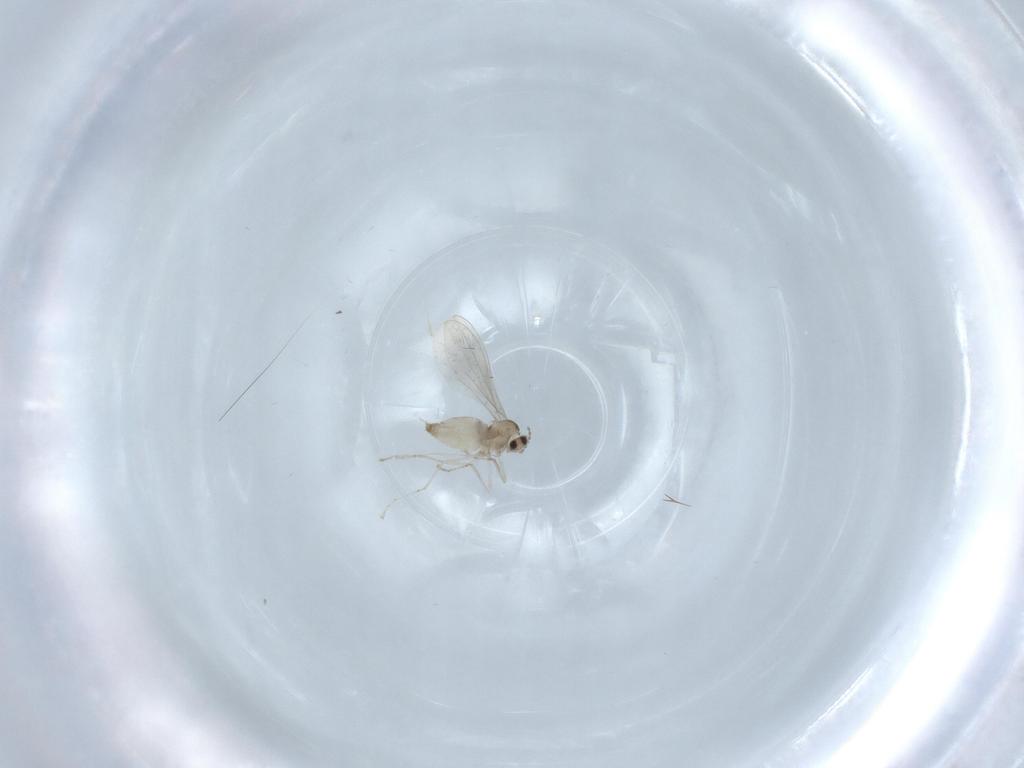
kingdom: Animalia
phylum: Arthropoda
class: Insecta
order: Diptera
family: Cecidomyiidae
